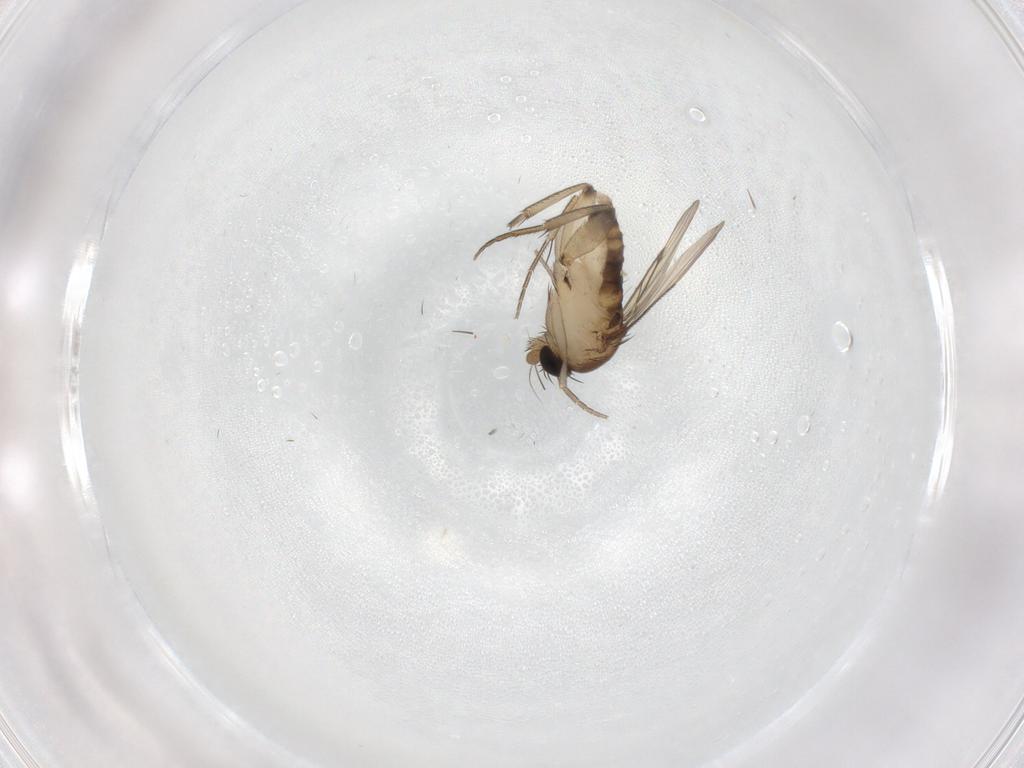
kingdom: Animalia
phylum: Arthropoda
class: Insecta
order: Diptera
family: Phoridae
